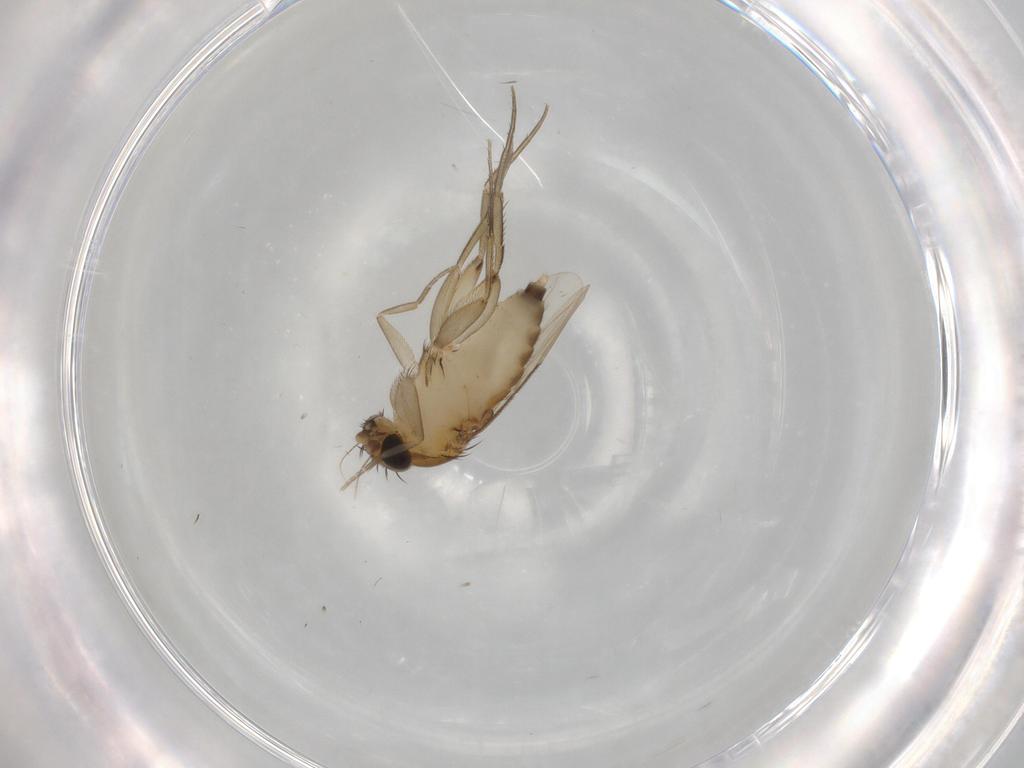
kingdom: Animalia
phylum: Arthropoda
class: Insecta
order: Diptera
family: Phoridae
